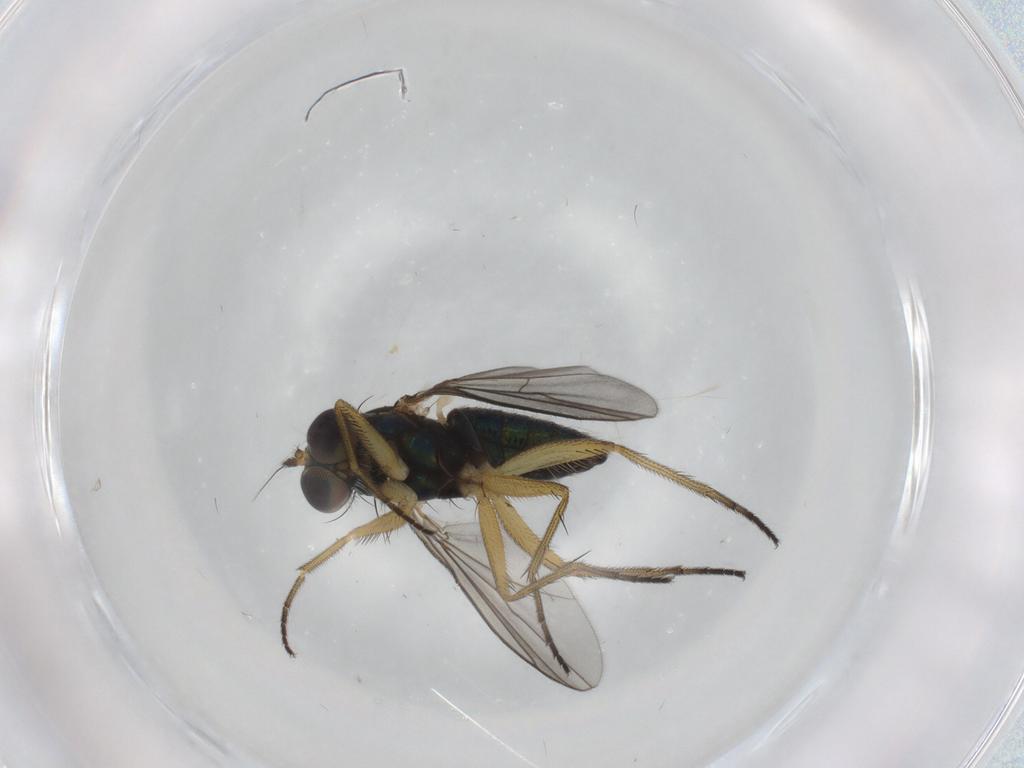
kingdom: Animalia
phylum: Arthropoda
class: Insecta
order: Diptera
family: Dolichopodidae
